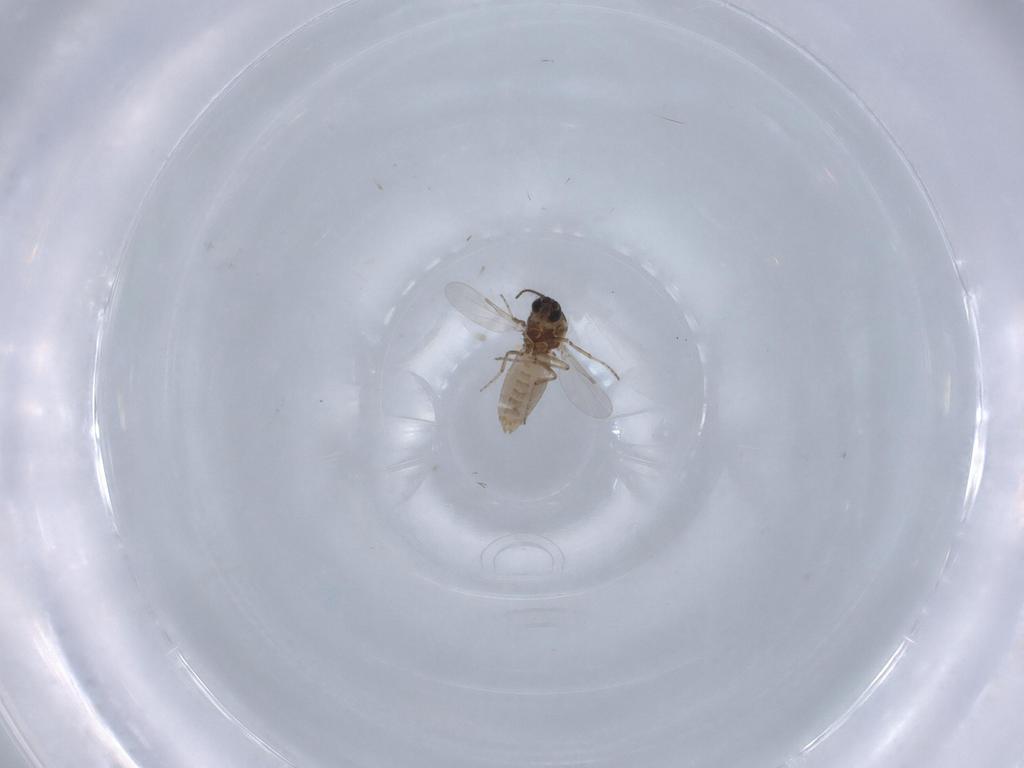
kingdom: Animalia
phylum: Arthropoda
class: Insecta
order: Diptera
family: Ceratopogonidae
